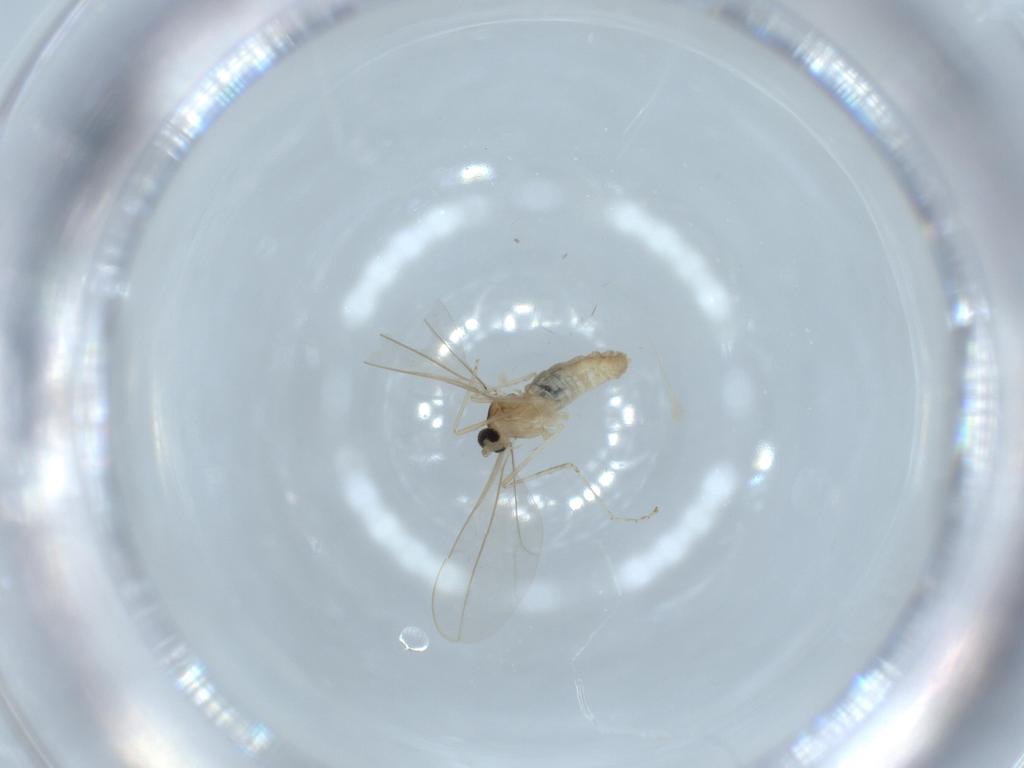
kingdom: Animalia
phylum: Arthropoda
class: Insecta
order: Diptera
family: Cecidomyiidae
